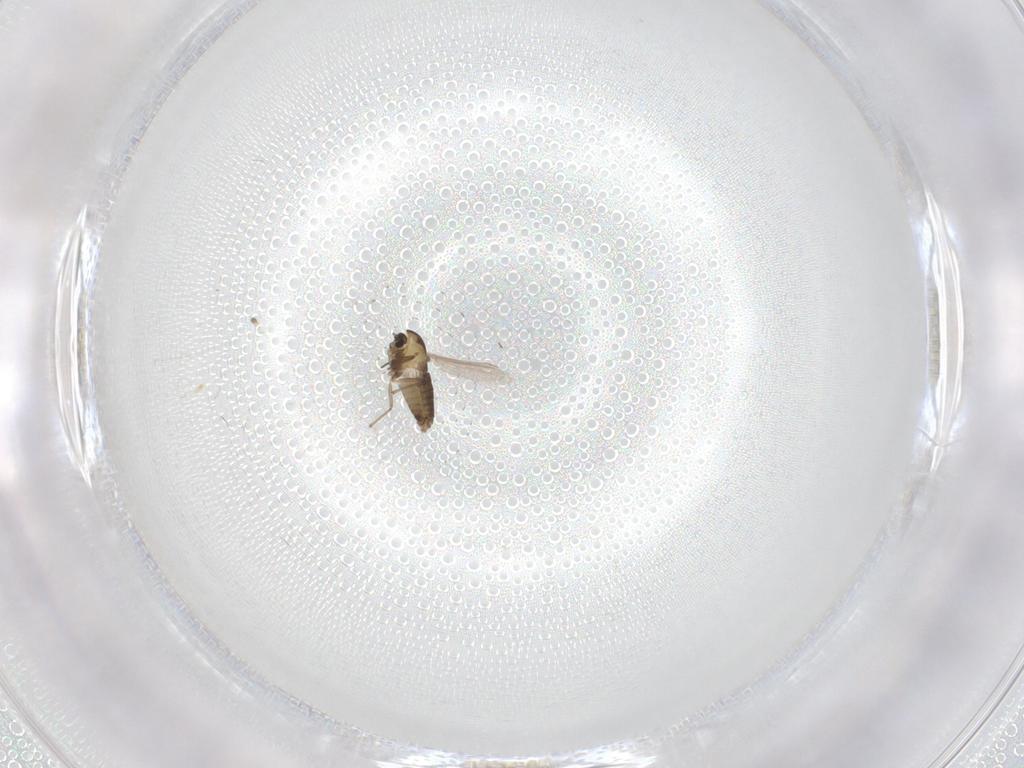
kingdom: Animalia
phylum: Arthropoda
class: Insecta
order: Diptera
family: Chironomidae
